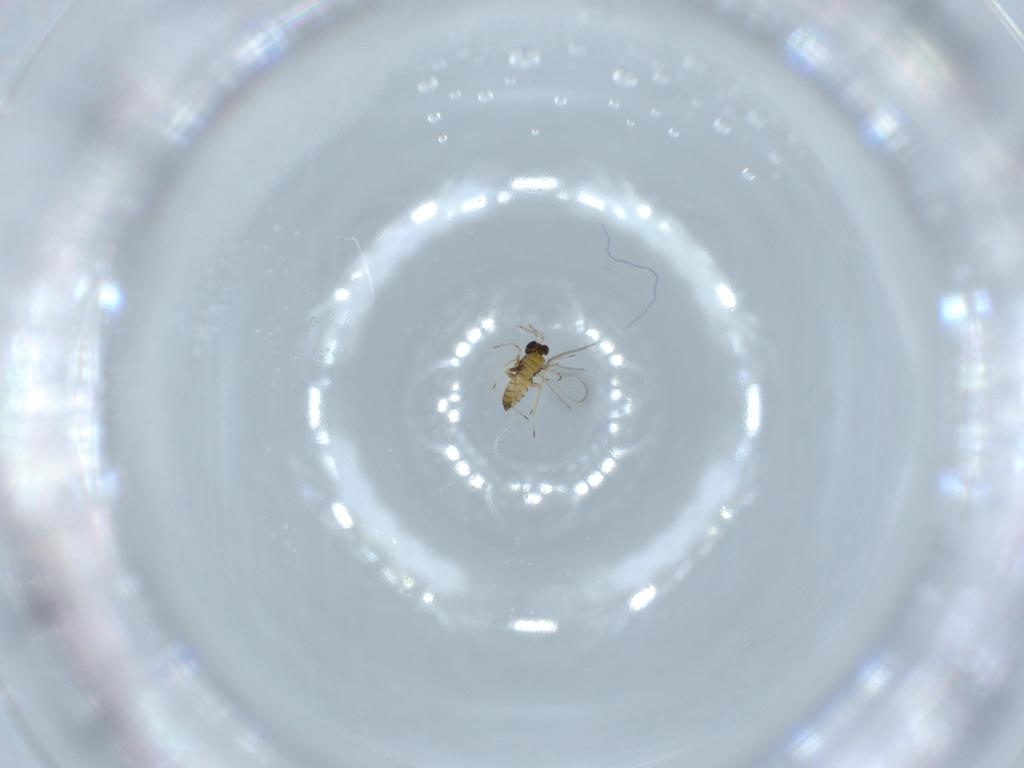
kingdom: Animalia
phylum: Arthropoda
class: Insecta
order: Hymenoptera
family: Trichogrammatidae
